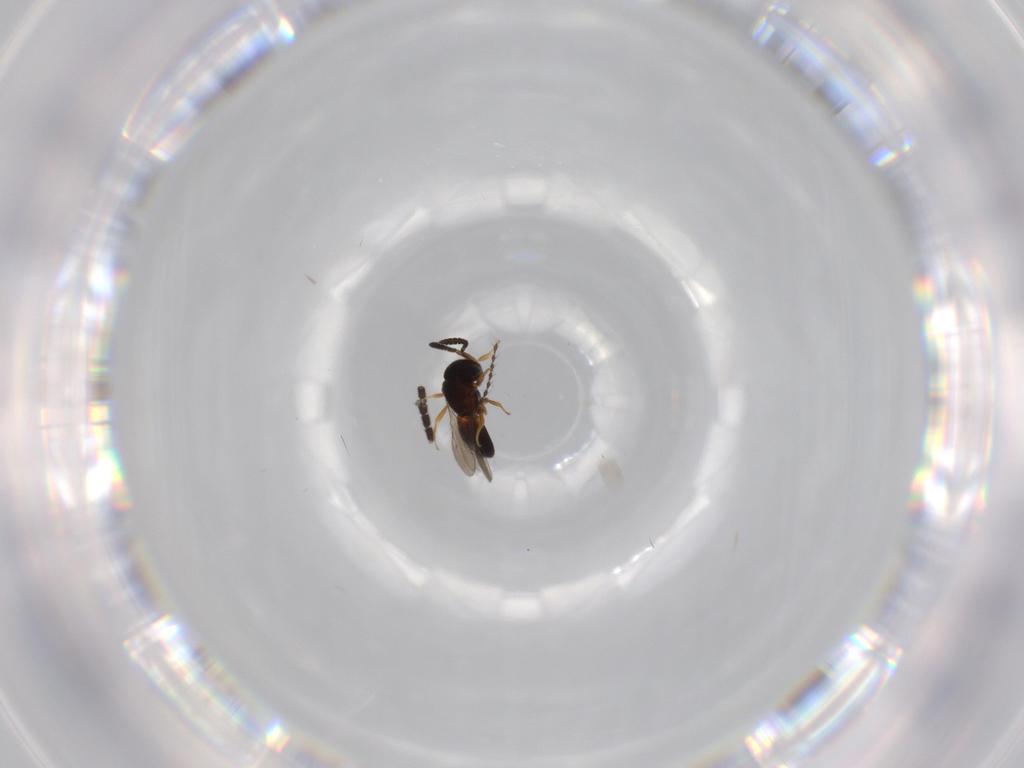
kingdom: Animalia
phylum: Arthropoda
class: Insecta
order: Hymenoptera
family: Scelionidae
